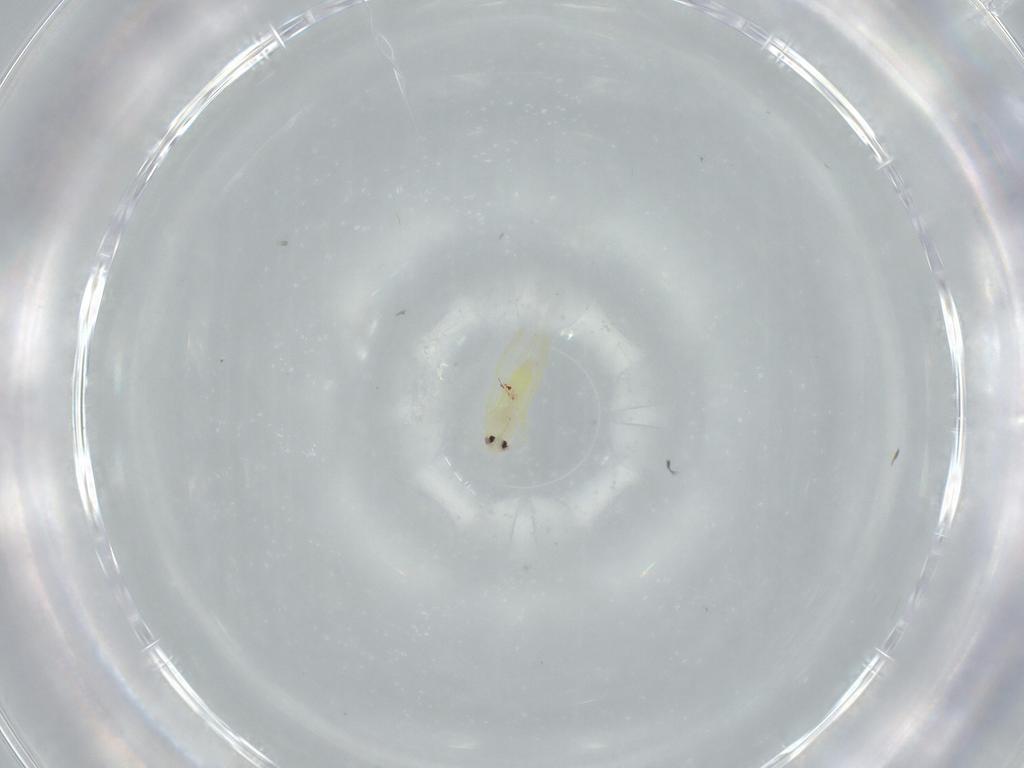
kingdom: Animalia
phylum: Arthropoda
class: Insecta
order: Hemiptera
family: Aleyrodidae
